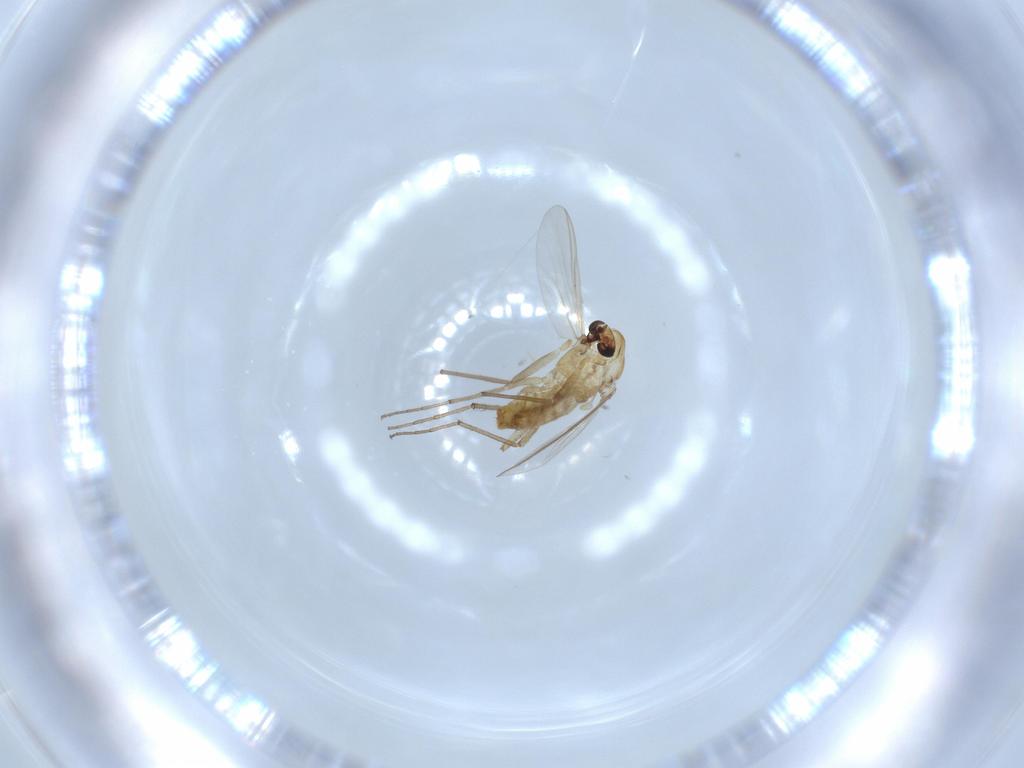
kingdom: Animalia
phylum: Arthropoda
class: Insecta
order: Diptera
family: Chironomidae
